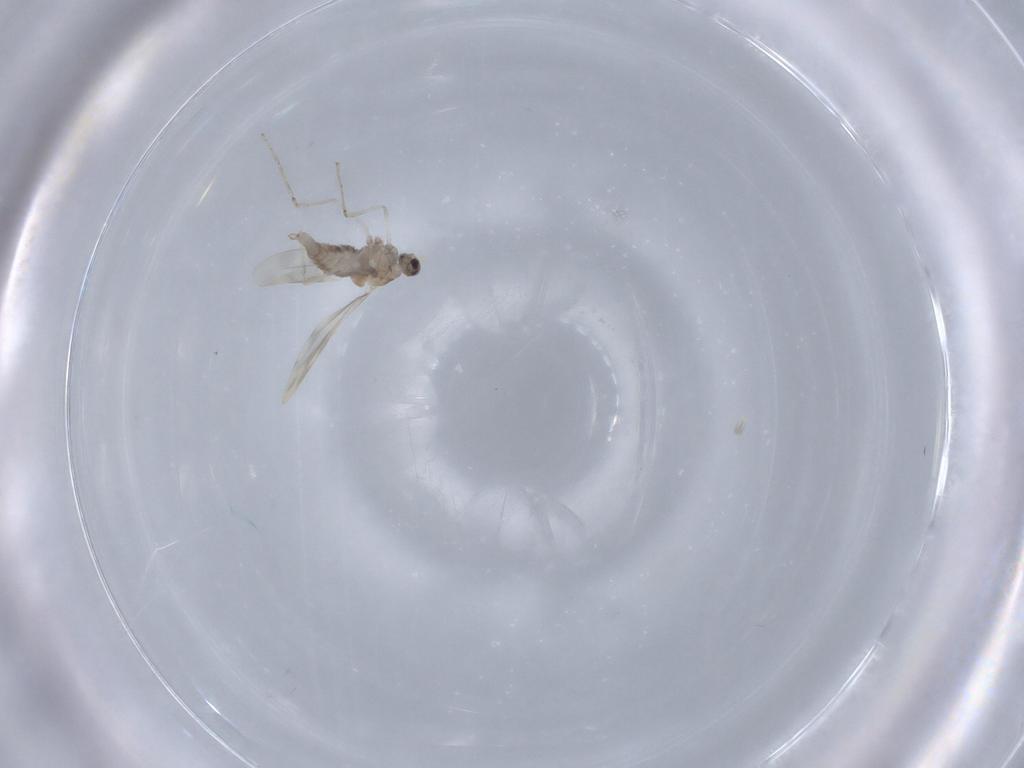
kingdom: Animalia
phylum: Arthropoda
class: Insecta
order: Diptera
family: Cecidomyiidae
